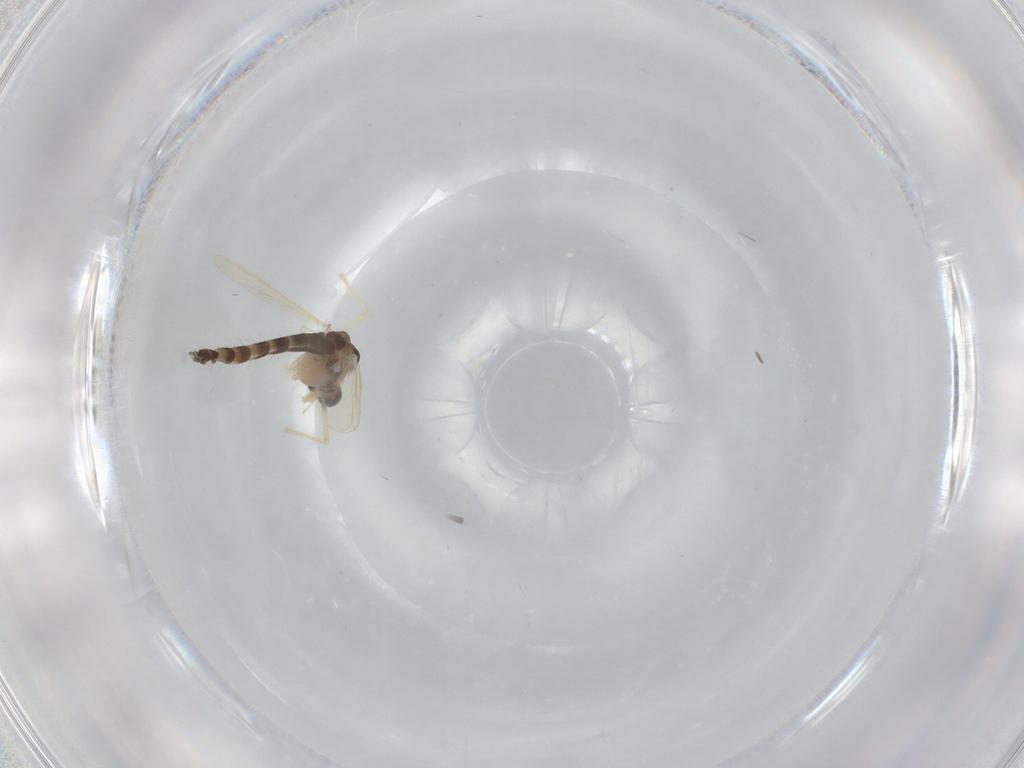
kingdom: Animalia
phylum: Arthropoda
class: Insecta
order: Diptera
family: Chironomidae
